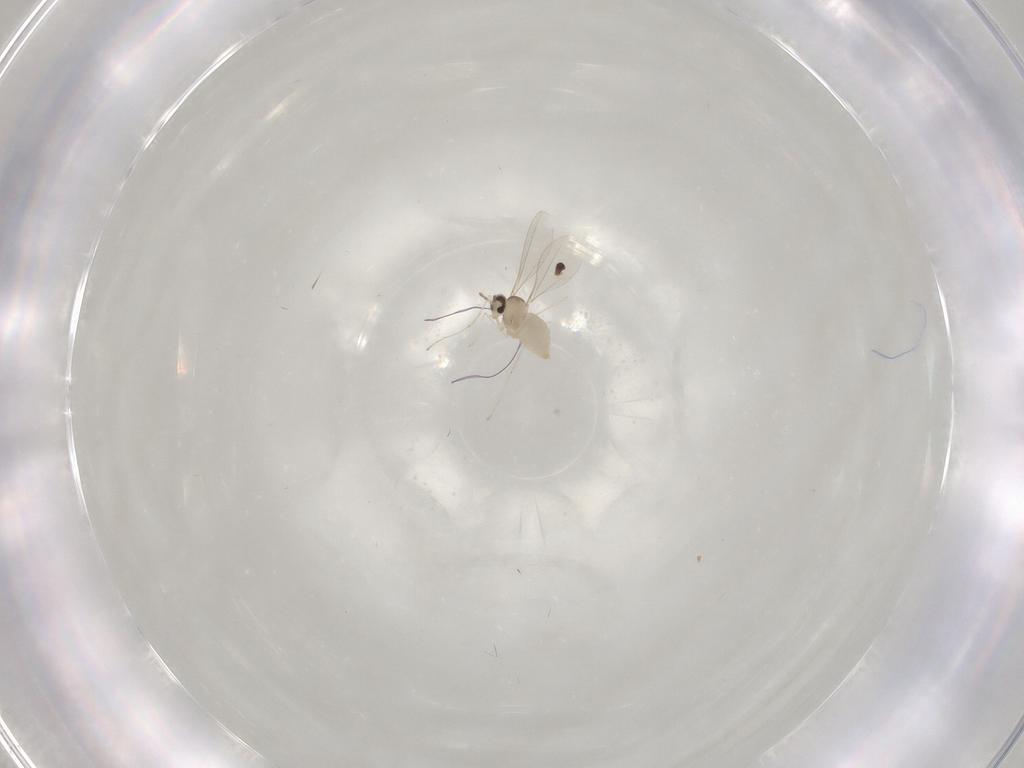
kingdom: Animalia
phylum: Arthropoda
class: Insecta
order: Diptera
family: Cecidomyiidae
